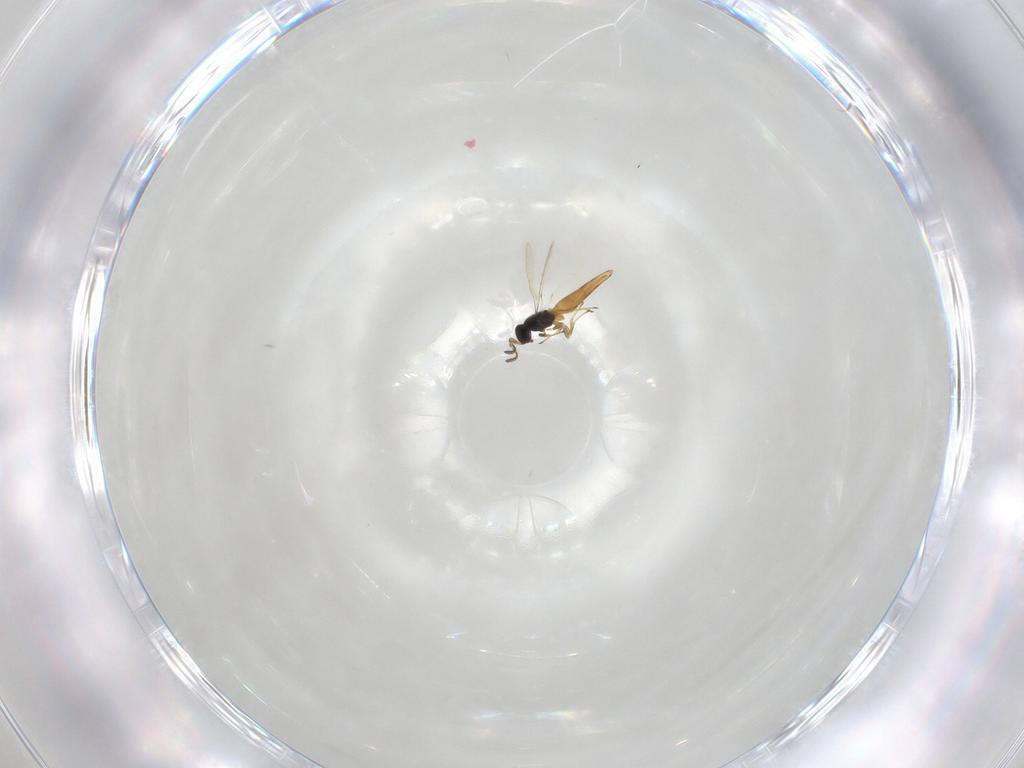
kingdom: Animalia
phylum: Arthropoda
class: Insecta
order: Hymenoptera
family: Scelionidae
